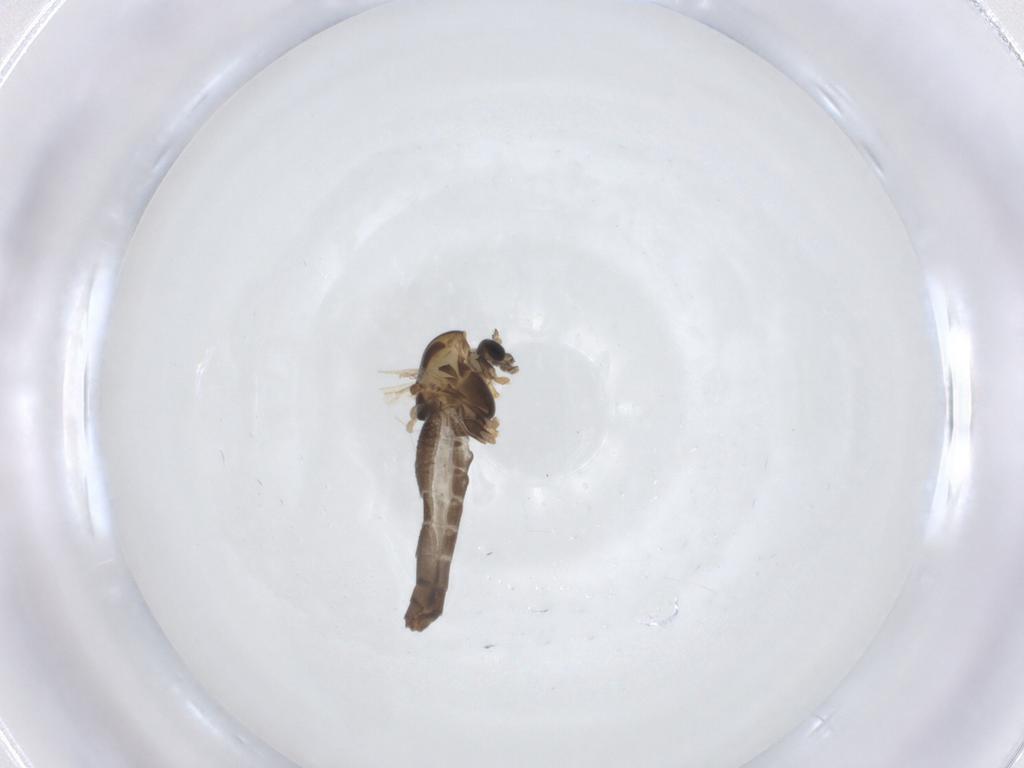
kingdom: Animalia
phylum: Arthropoda
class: Insecta
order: Diptera
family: Chironomidae
